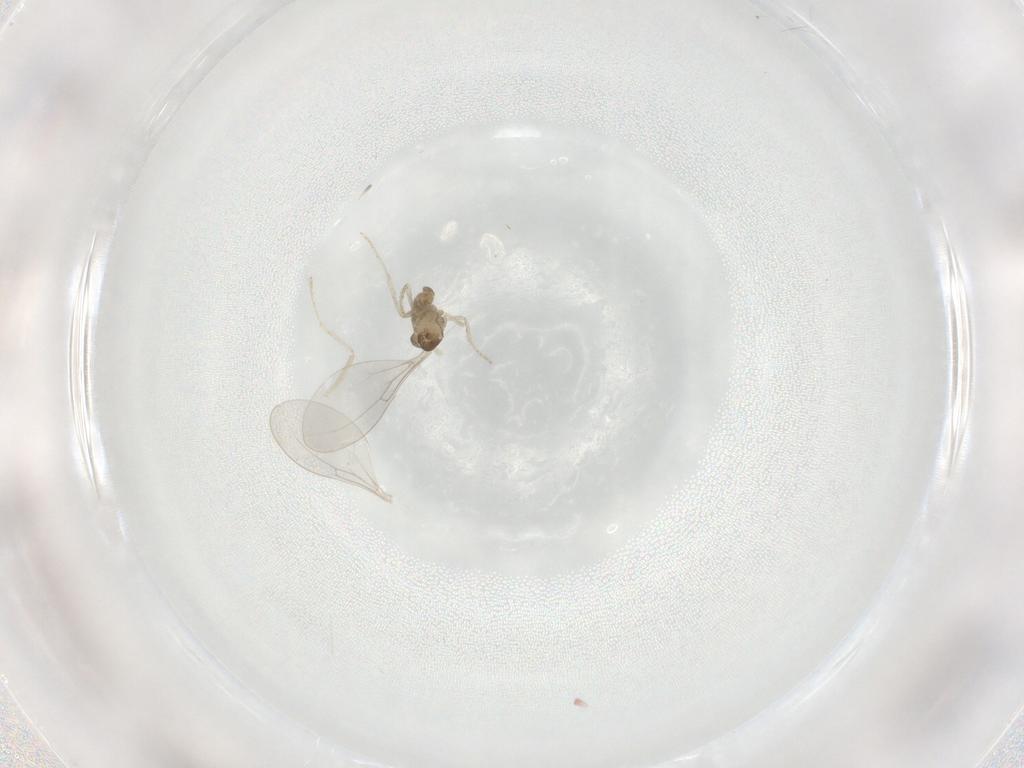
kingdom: Animalia
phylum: Arthropoda
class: Insecta
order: Diptera
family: Cecidomyiidae
